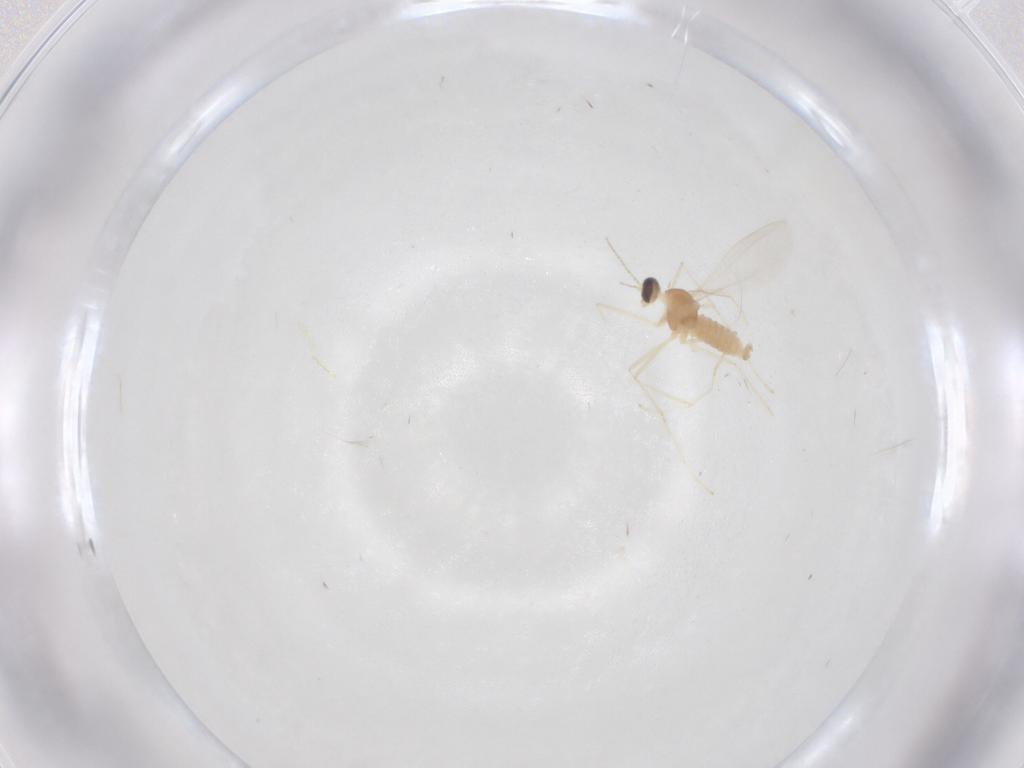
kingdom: Animalia
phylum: Arthropoda
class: Insecta
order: Diptera
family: Cecidomyiidae
